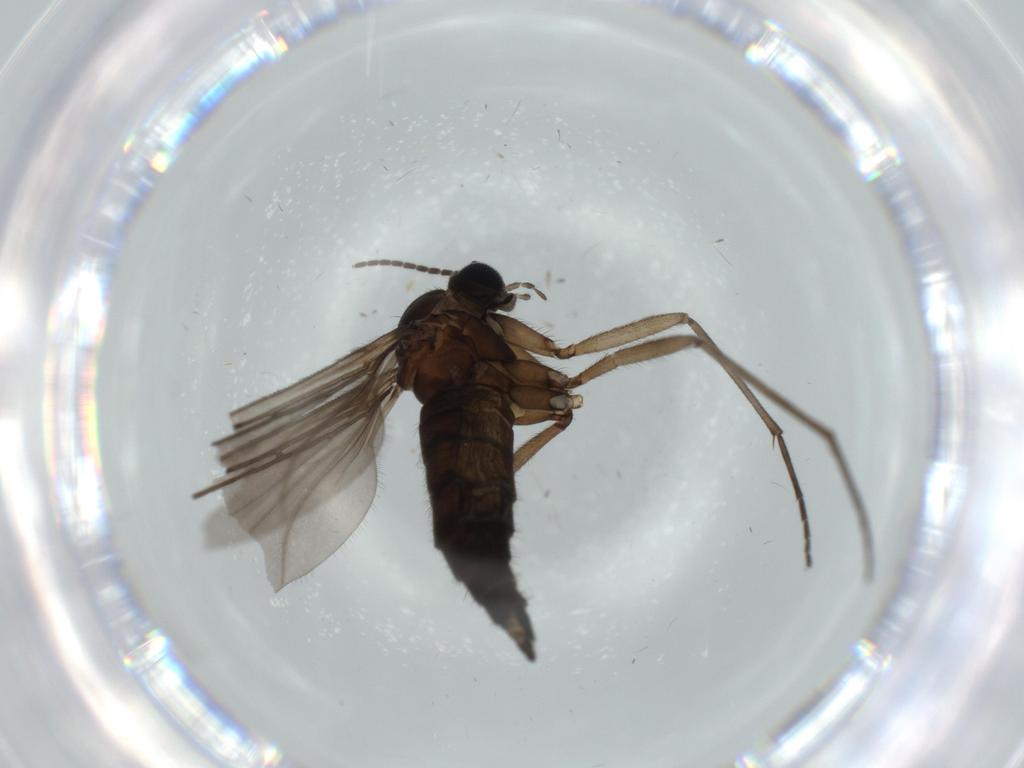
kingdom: Animalia
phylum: Arthropoda
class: Insecta
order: Diptera
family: Sciaridae
